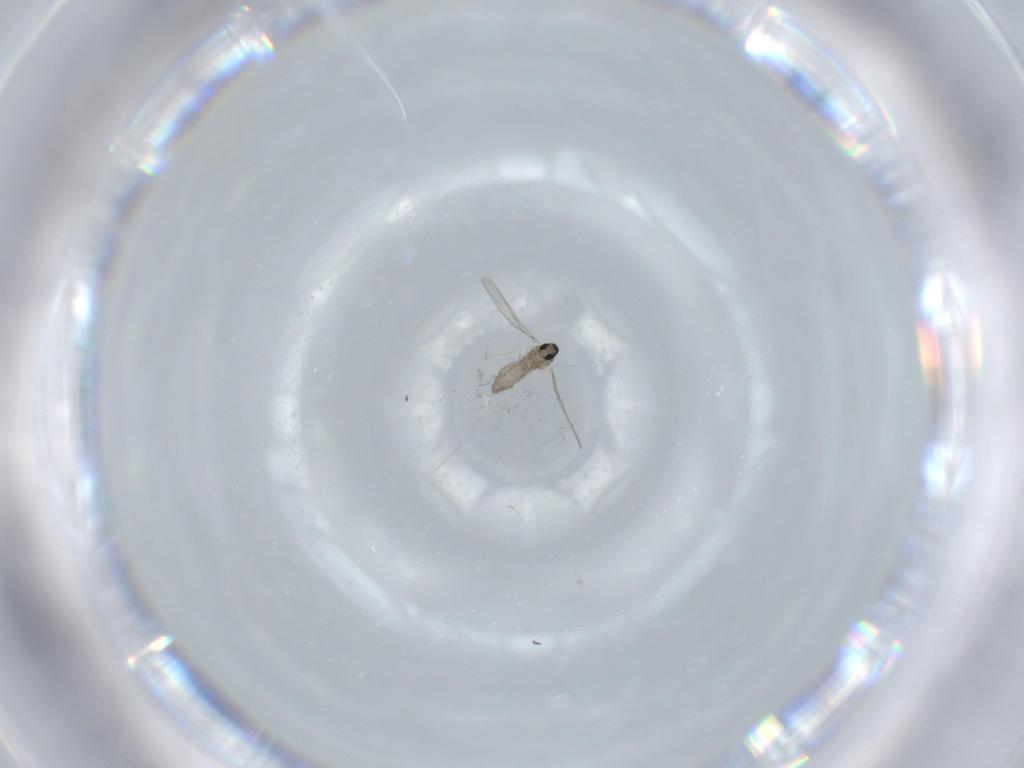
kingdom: Animalia
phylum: Arthropoda
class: Insecta
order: Diptera
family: Cecidomyiidae
